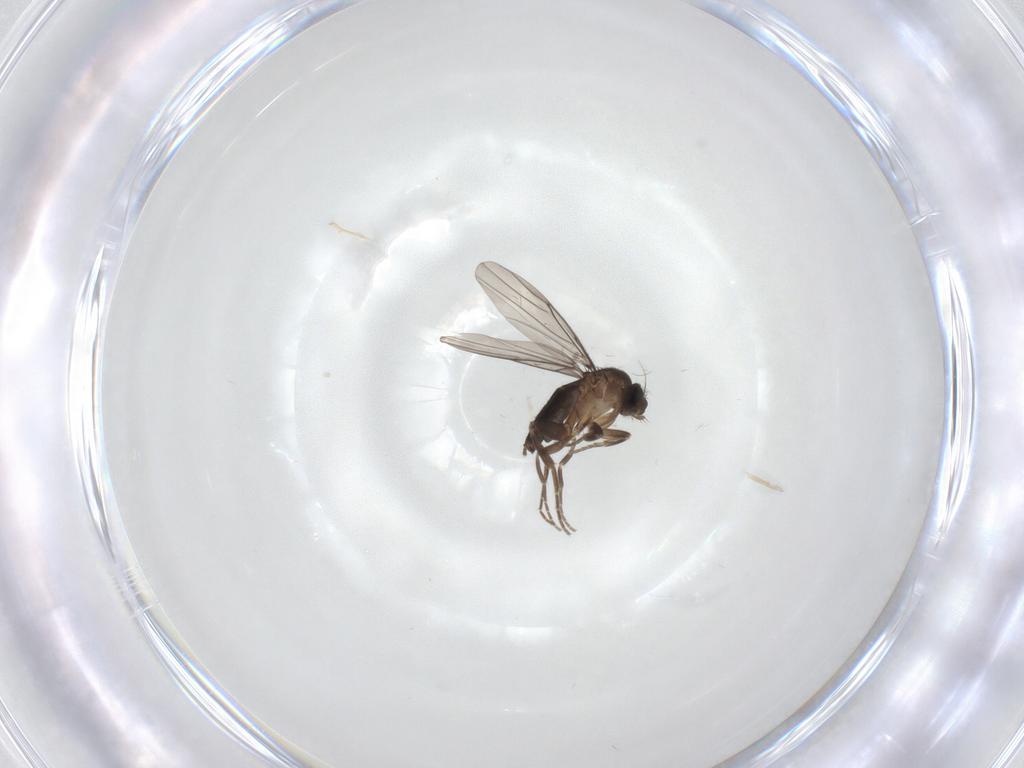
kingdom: Animalia
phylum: Arthropoda
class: Insecta
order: Diptera
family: Phoridae
